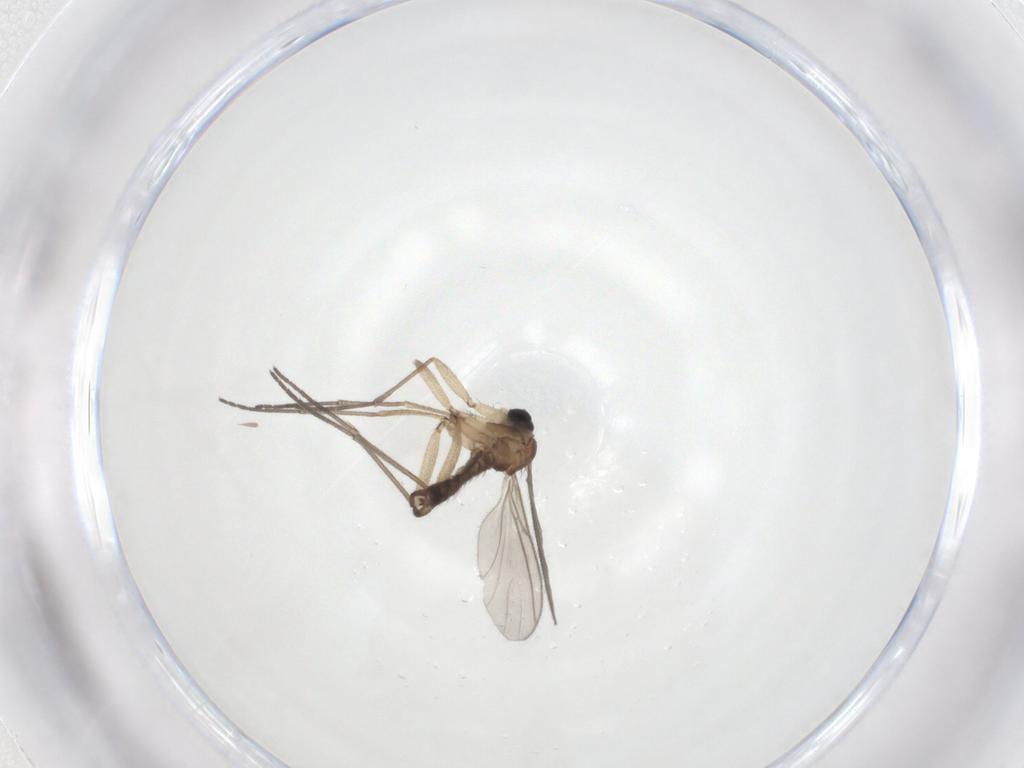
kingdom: Animalia
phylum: Arthropoda
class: Insecta
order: Diptera
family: Sciaridae
